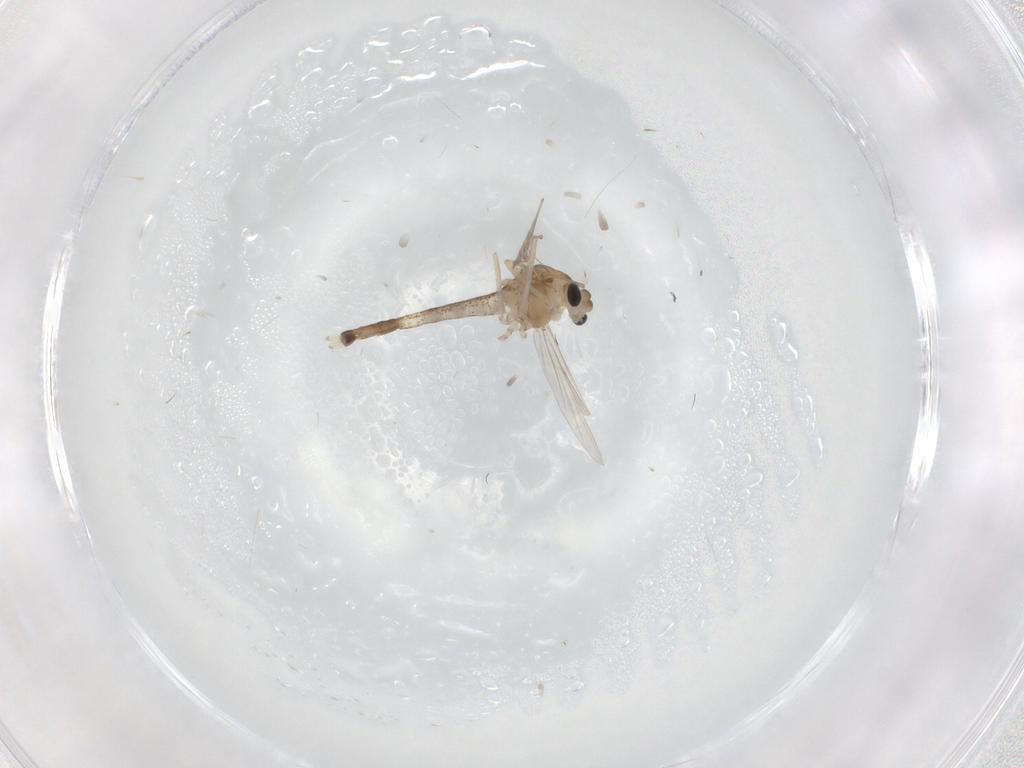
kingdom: Animalia
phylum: Arthropoda
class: Insecta
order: Diptera
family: Chironomidae
